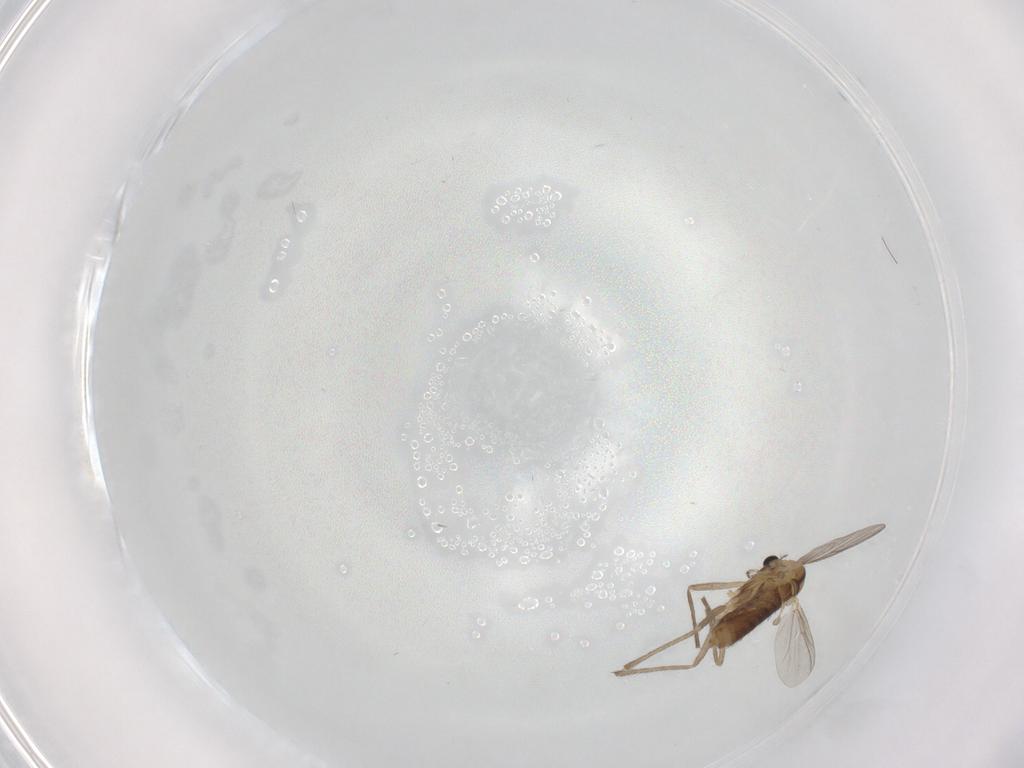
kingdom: Animalia
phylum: Arthropoda
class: Insecta
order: Diptera
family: Chironomidae
